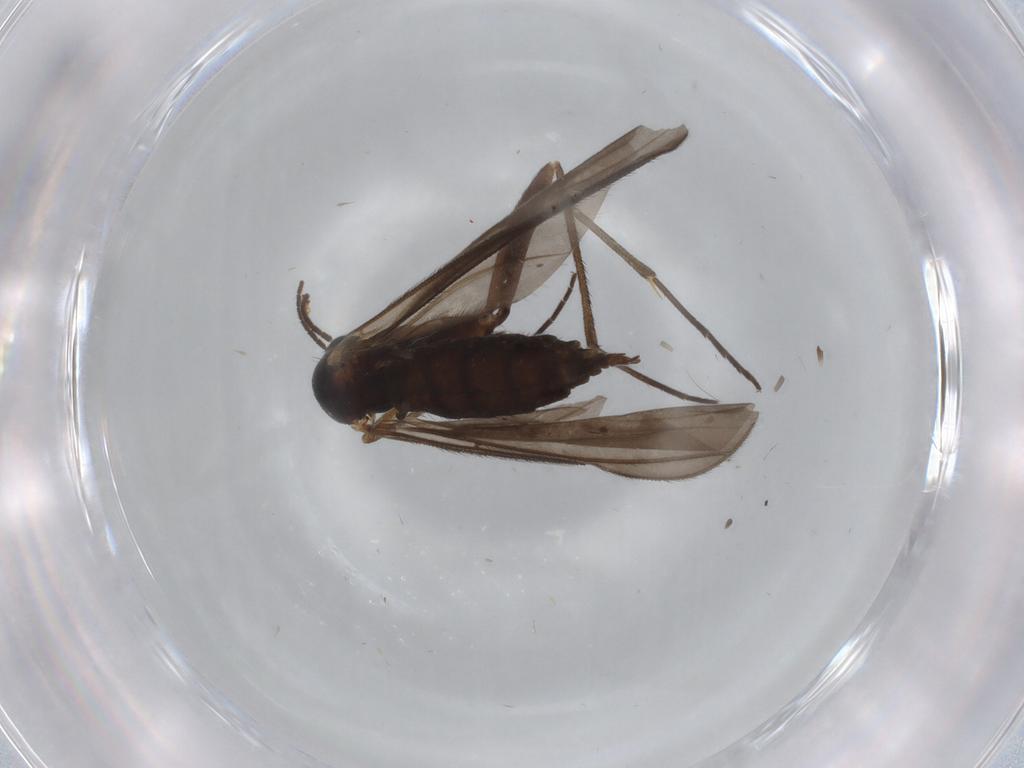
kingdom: Animalia
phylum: Arthropoda
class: Insecta
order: Diptera
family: Sciaridae
